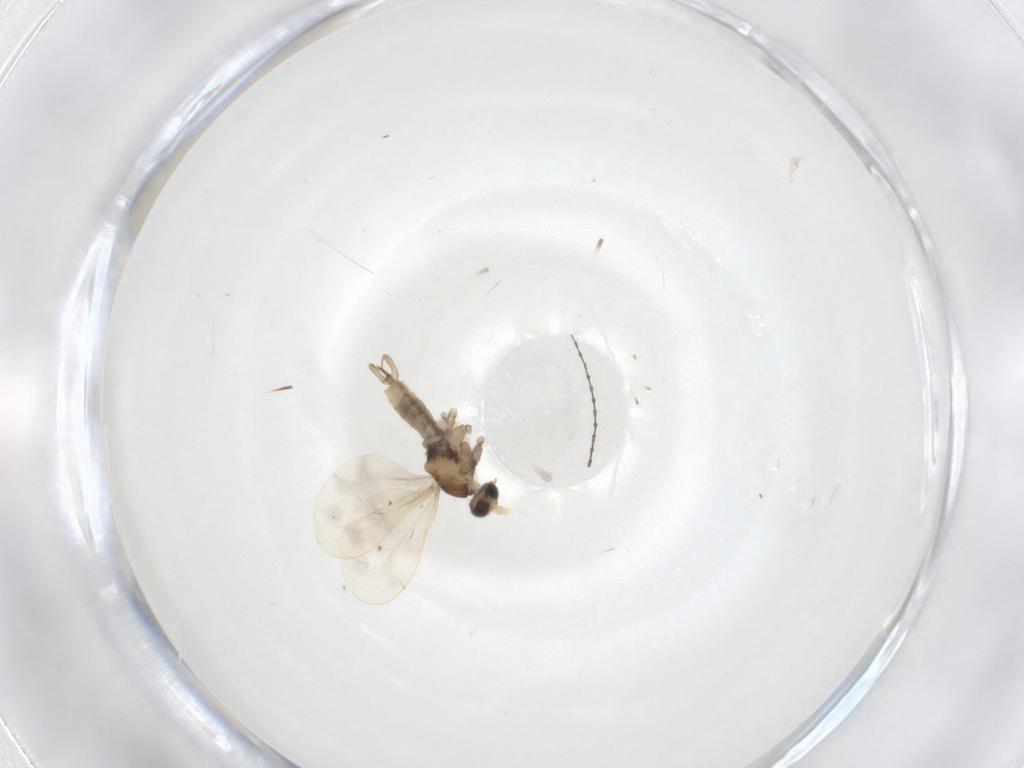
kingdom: Animalia
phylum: Arthropoda
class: Insecta
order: Diptera
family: Cecidomyiidae
